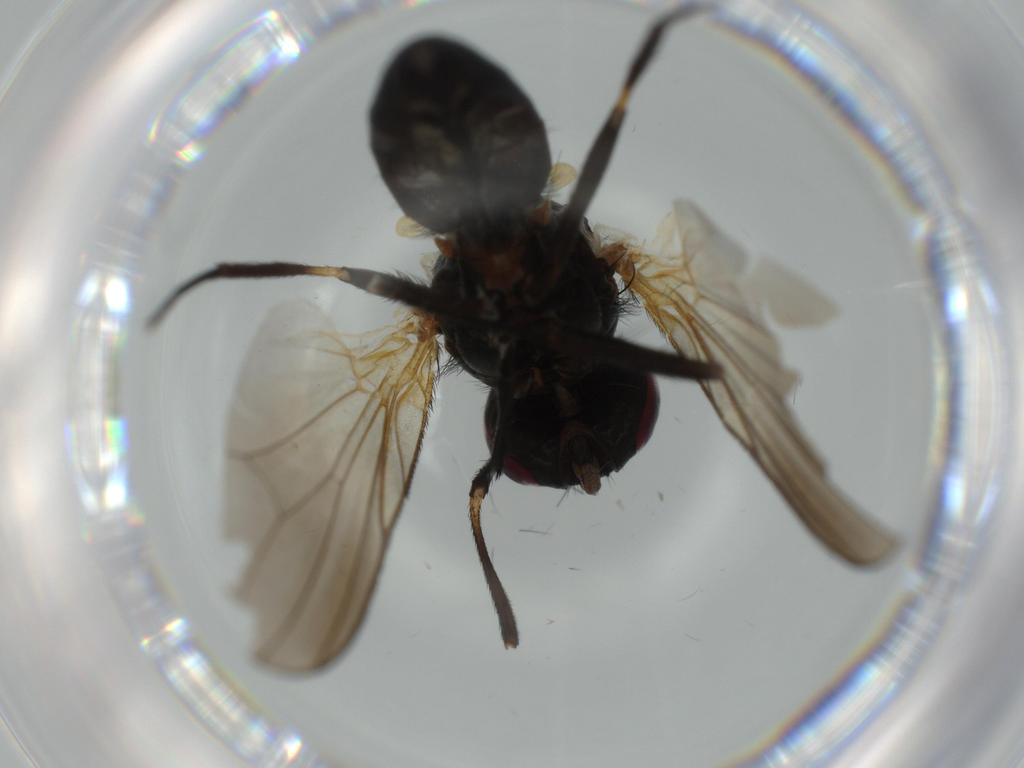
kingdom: Animalia
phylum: Arthropoda
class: Insecta
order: Diptera
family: Fannia
